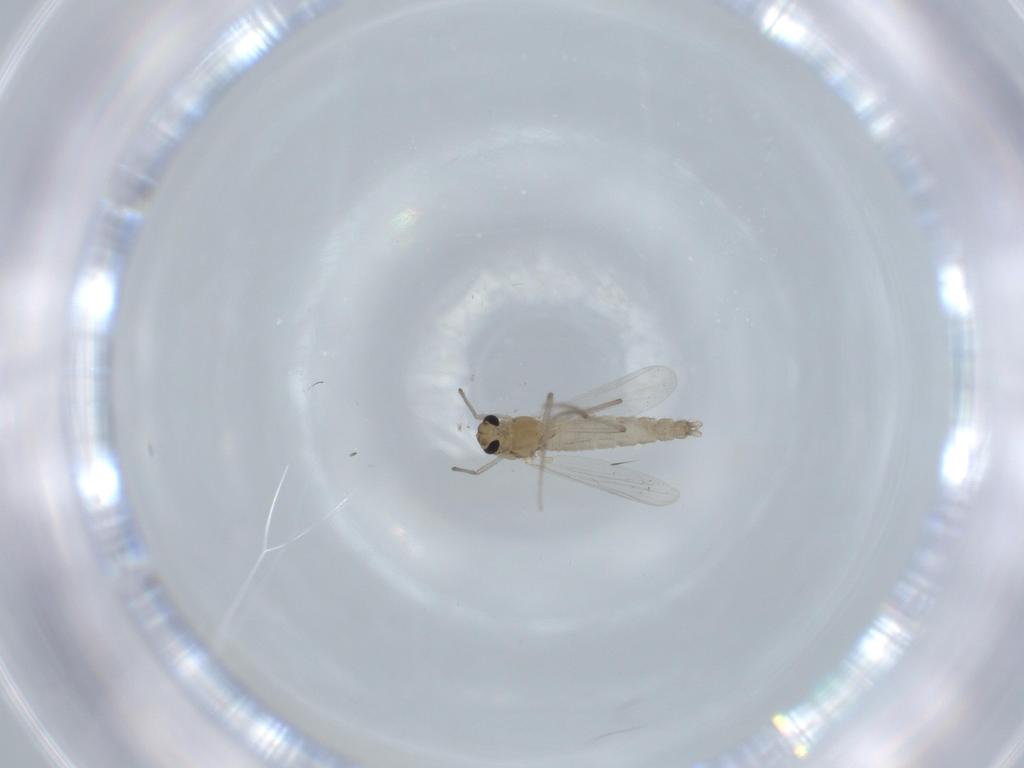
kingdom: Animalia
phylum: Arthropoda
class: Insecta
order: Diptera
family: Chironomidae
